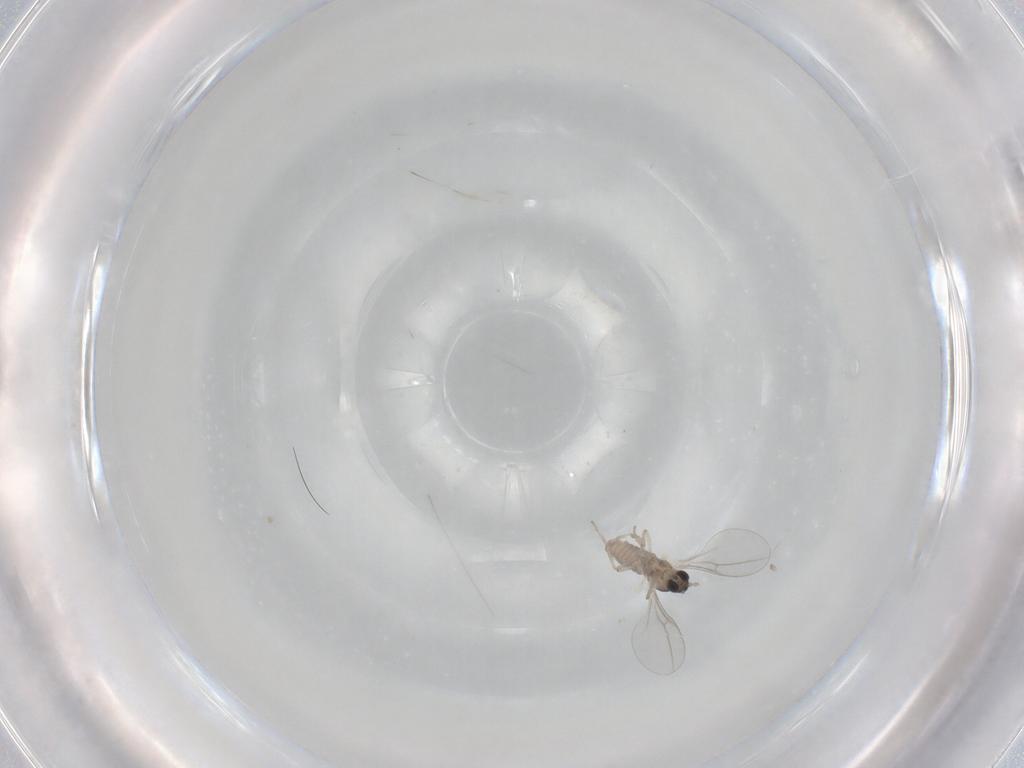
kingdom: Animalia
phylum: Arthropoda
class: Insecta
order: Diptera
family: Cecidomyiidae
